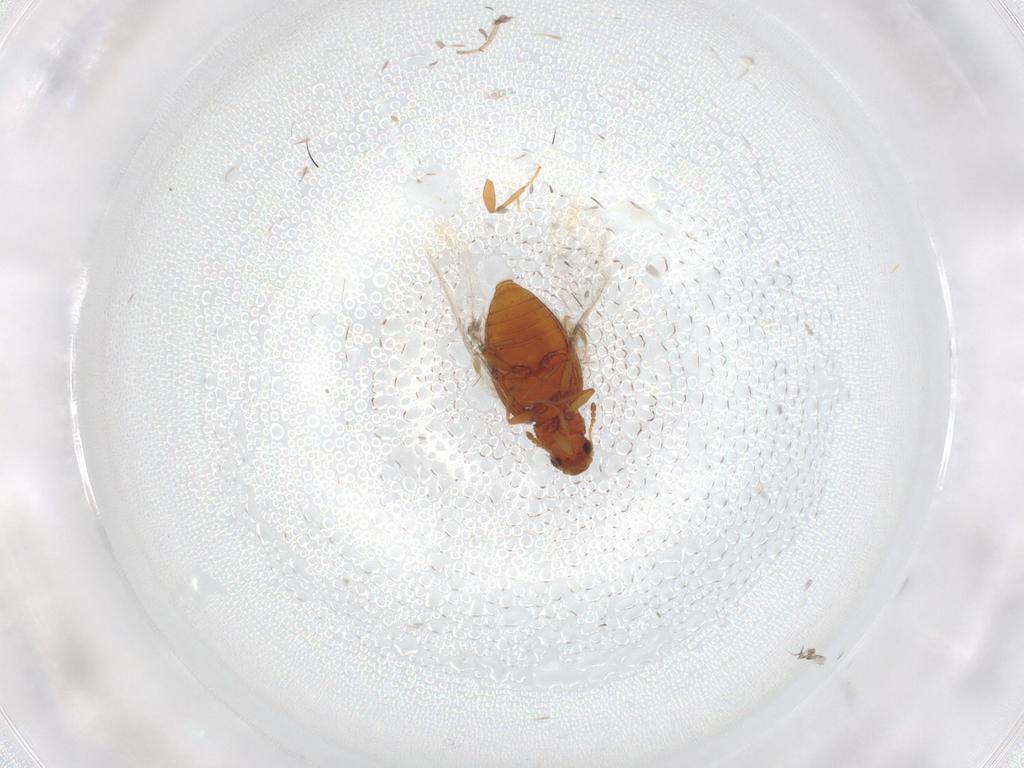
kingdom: Animalia
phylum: Arthropoda
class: Insecta
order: Coleoptera
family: Latridiidae
